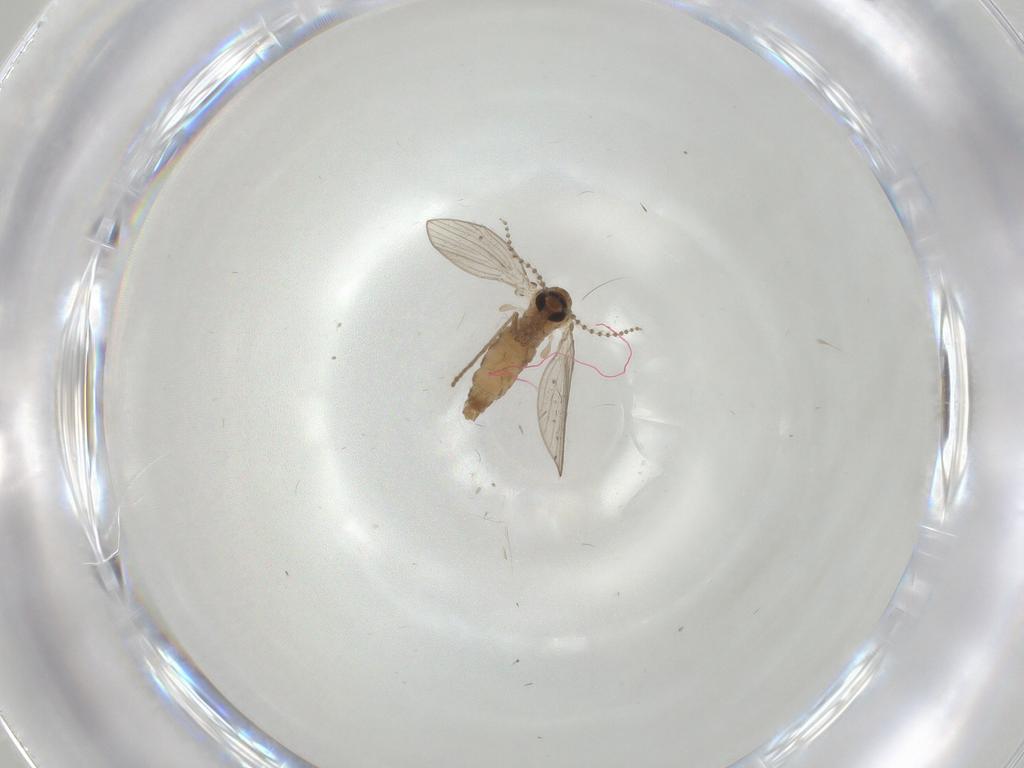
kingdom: Animalia
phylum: Arthropoda
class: Insecta
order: Diptera
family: Psychodidae
